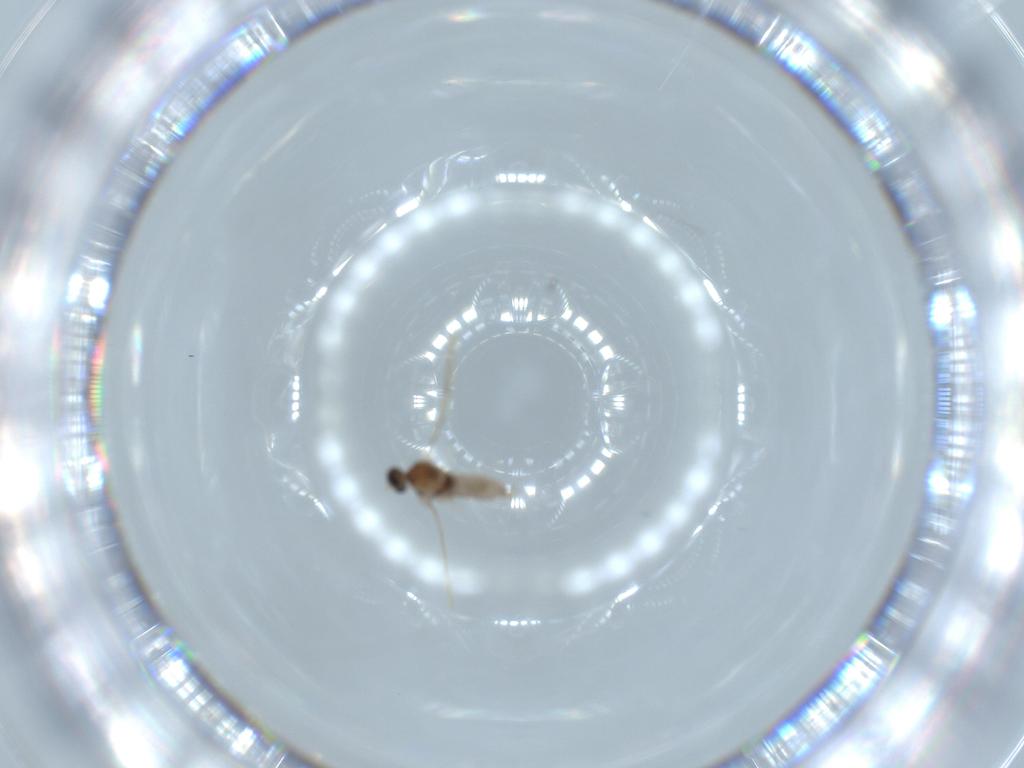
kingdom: Animalia
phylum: Arthropoda
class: Insecta
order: Diptera
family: Cecidomyiidae
